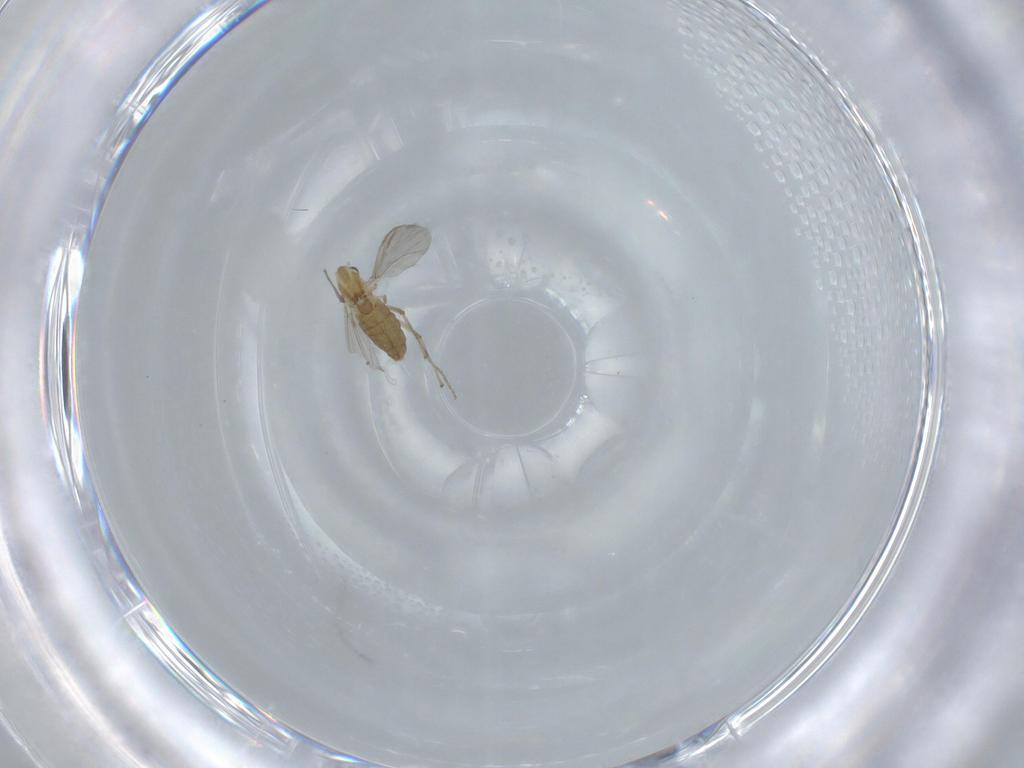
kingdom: Animalia
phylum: Arthropoda
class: Insecta
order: Diptera
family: Chironomidae
